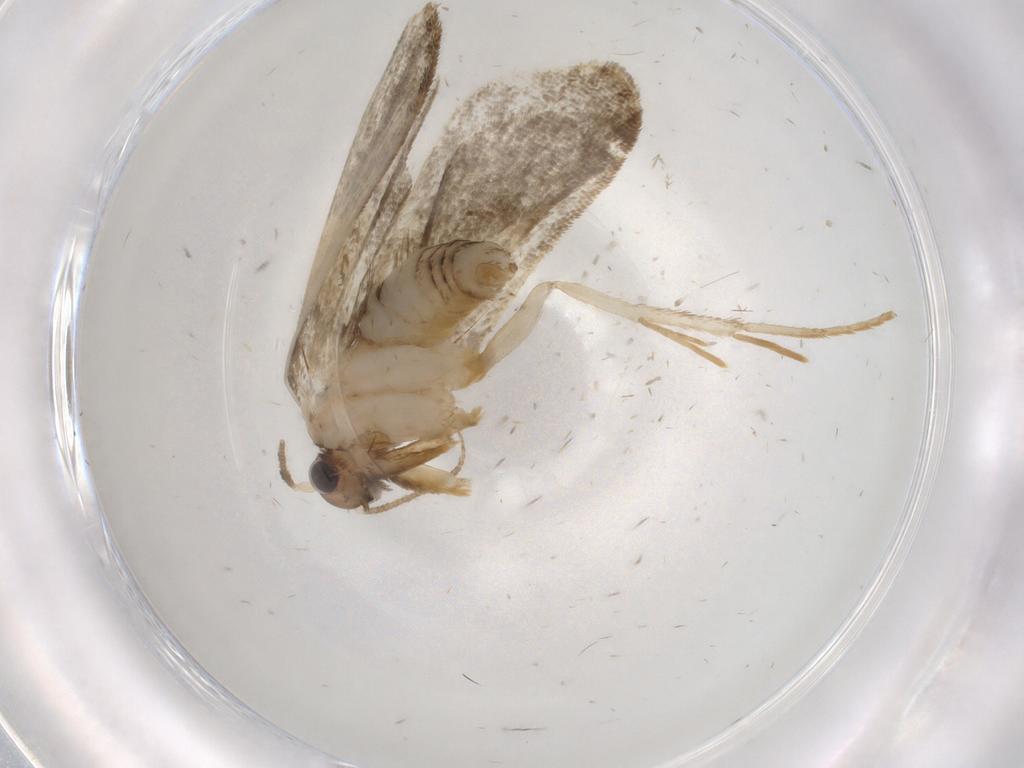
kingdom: Animalia
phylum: Arthropoda
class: Insecta
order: Lepidoptera
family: Psychidae
